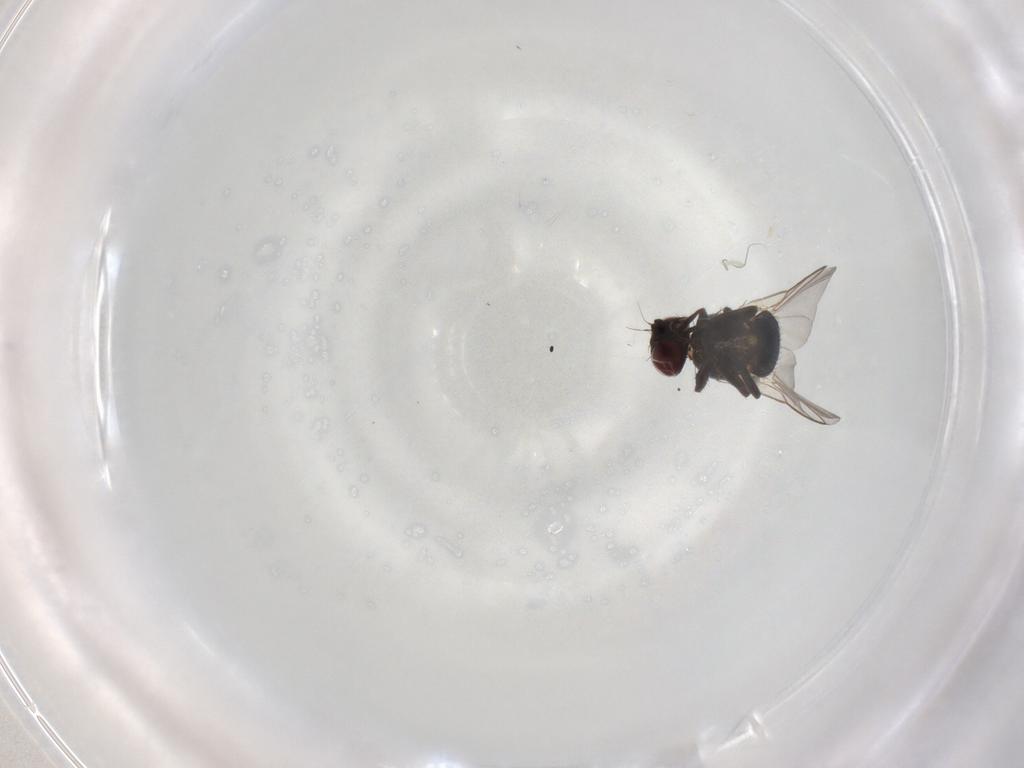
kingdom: Animalia
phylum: Arthropoda
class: Insecta
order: Diptera
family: Agromyzidae
